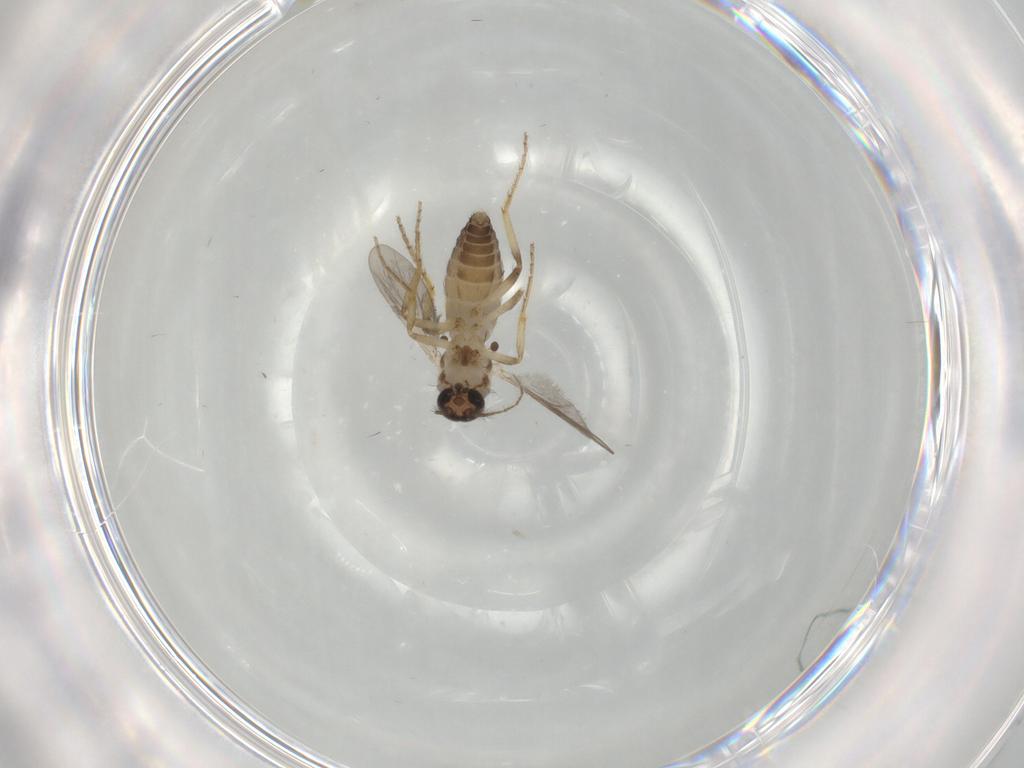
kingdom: Animalia
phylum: Arthropoda
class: Insecta
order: Diptera
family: Ceratopogonidae
